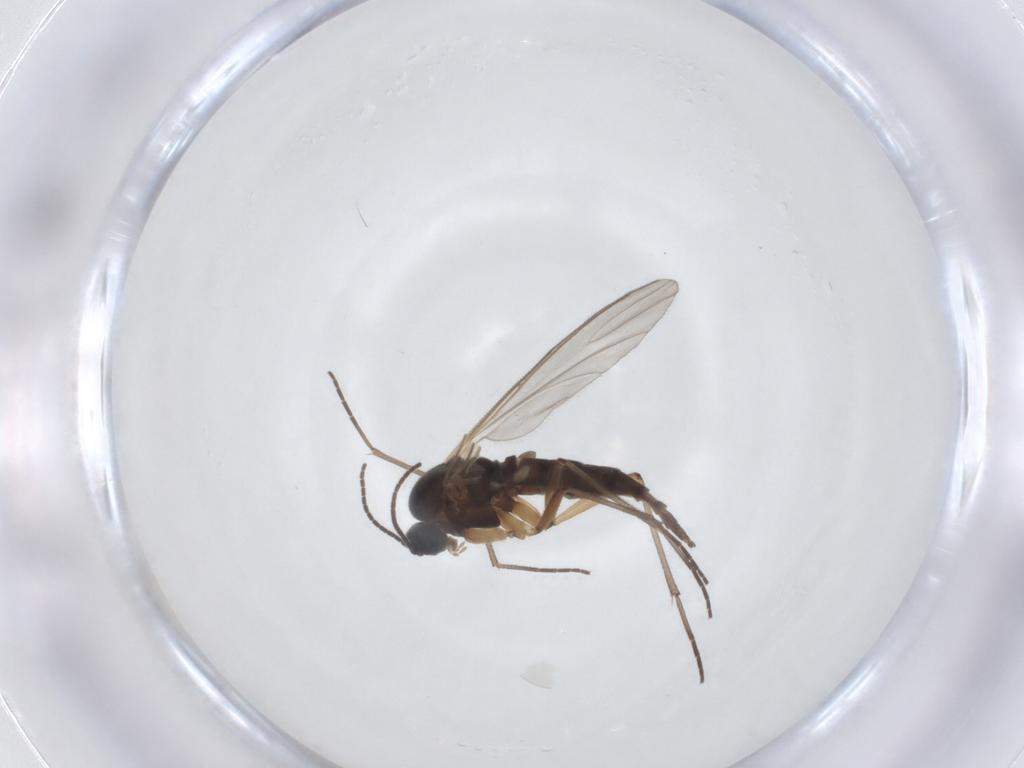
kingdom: Animalia
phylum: Arthropoda
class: Insecta
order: Diptera
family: Sciaridae
